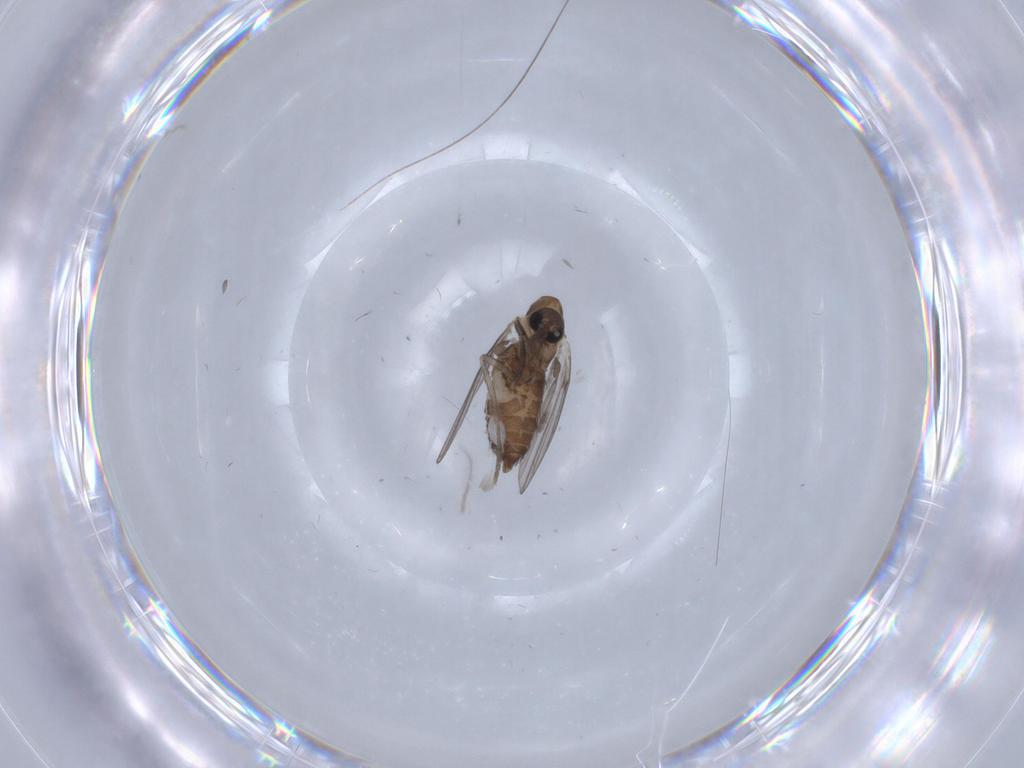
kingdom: Animalia
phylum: Arthropoda
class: Insecta
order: Diptera
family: Psychodidae
